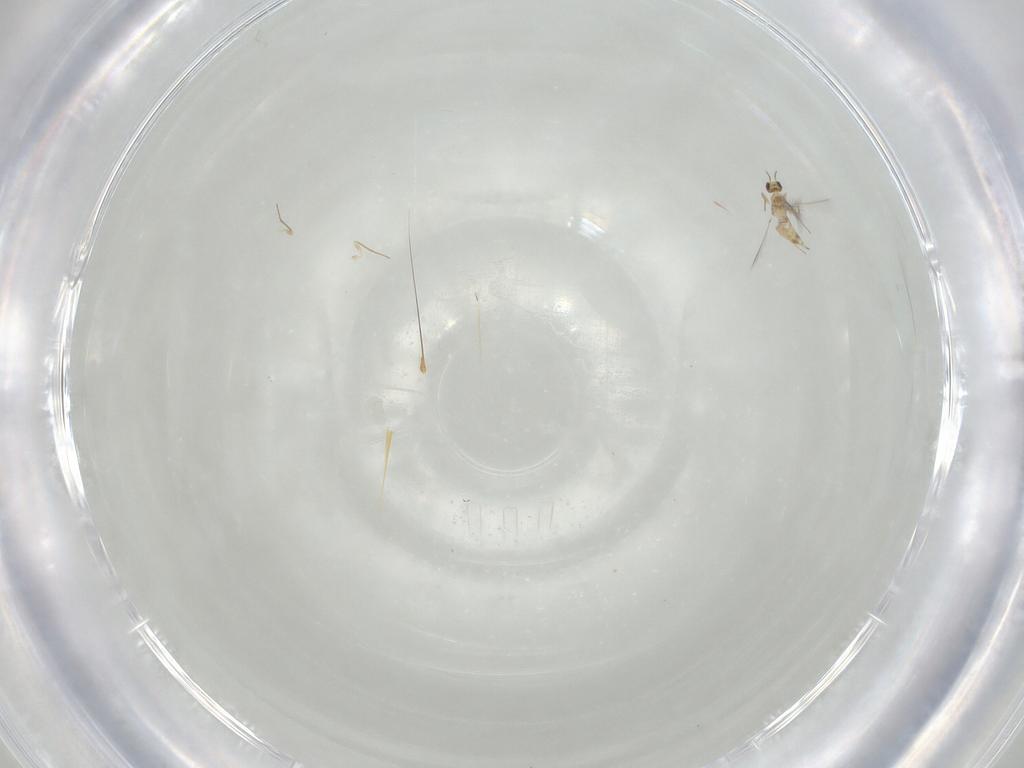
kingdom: Animalia
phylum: Arthropoda
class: Insecta
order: Hymenoptera
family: Mymaridae
